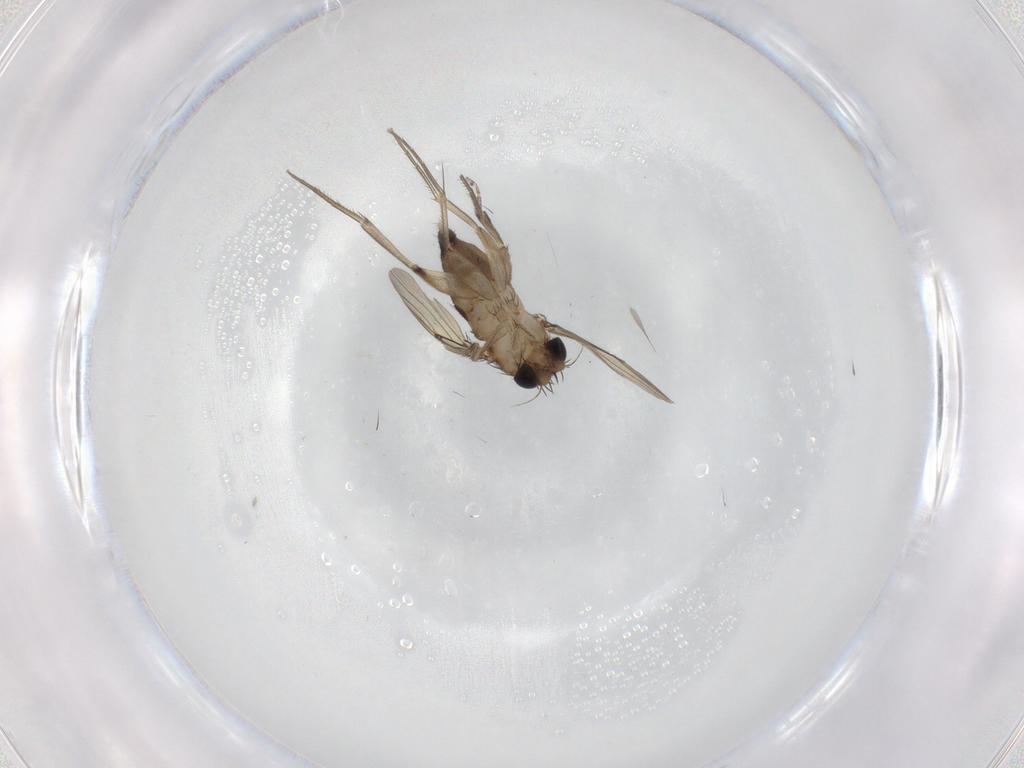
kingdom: Animalia
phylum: Arthropoda
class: Insecta
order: Diptera
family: Phoridae
